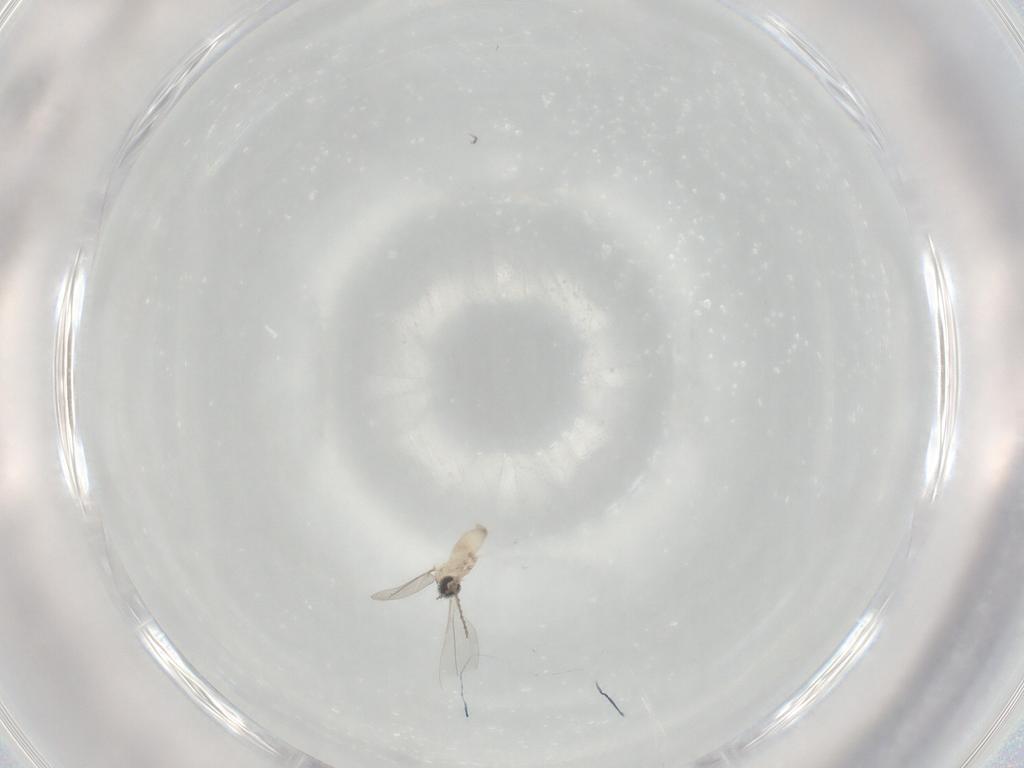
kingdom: Animalia
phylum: Arthropoda
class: Insecta
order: Diptera
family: Cecidomyiidae
